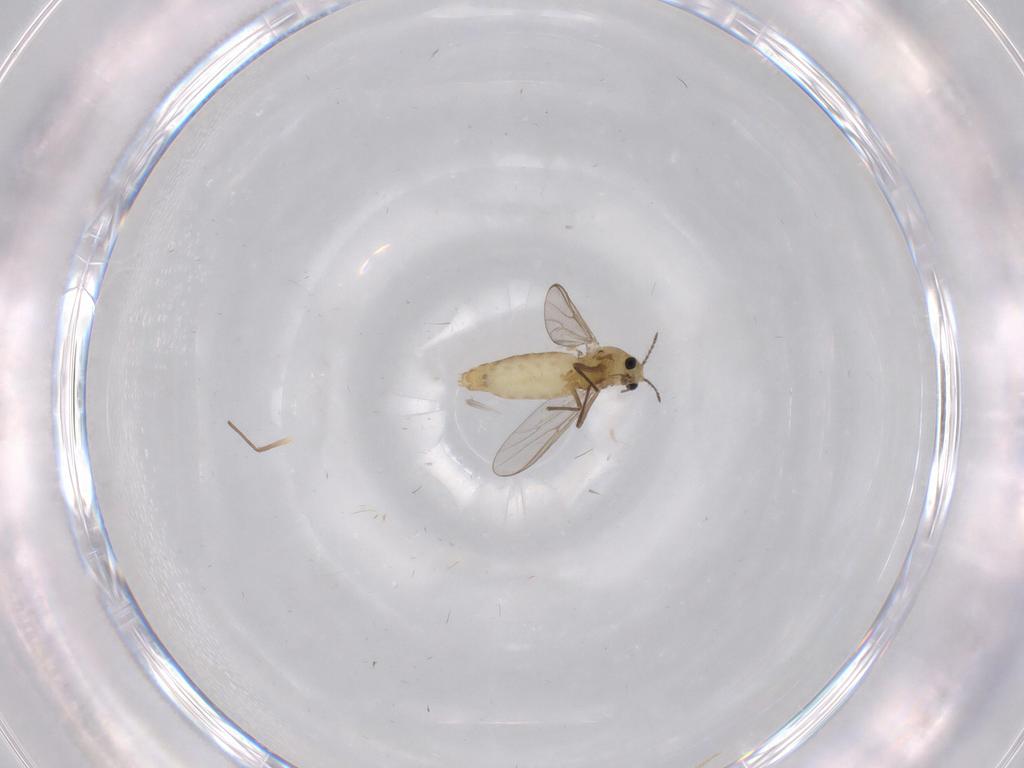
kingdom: Animalia
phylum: Arthropoda
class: Insecta
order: Diptera
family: Chironomidae
